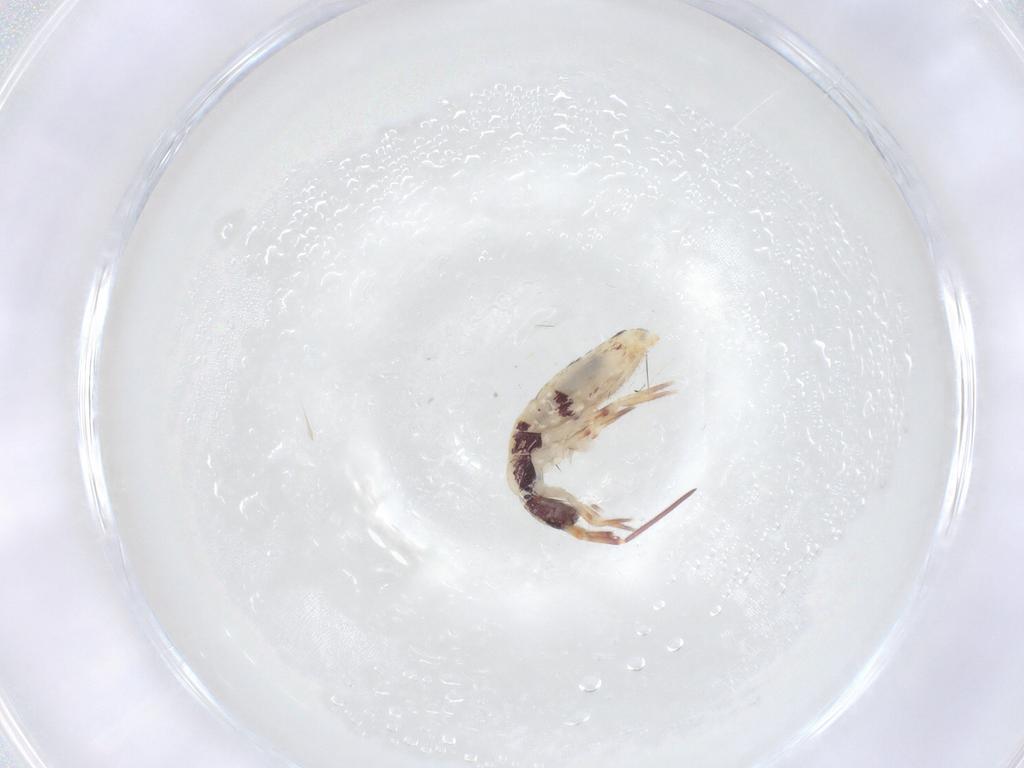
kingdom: Animalia
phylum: Arthropoda
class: Collembola
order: Entomobryomorpha
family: Entomobryidae
